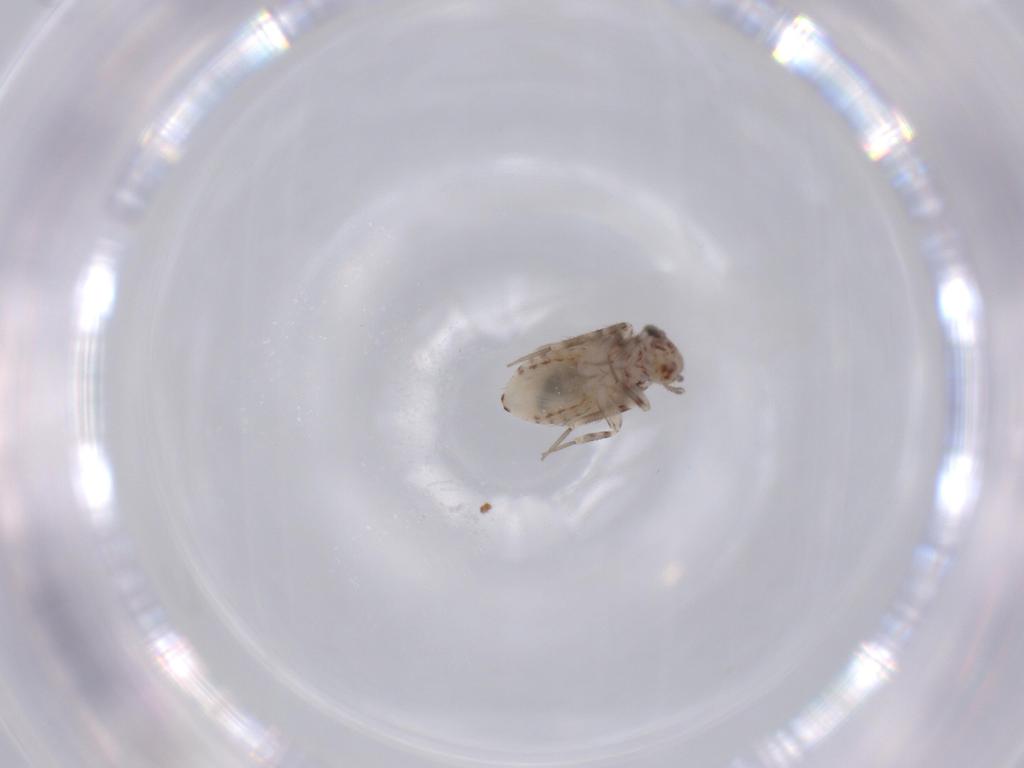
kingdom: Animalia
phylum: Arthropoda
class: Insecta
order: Psocodea
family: Lepidopsocidae
